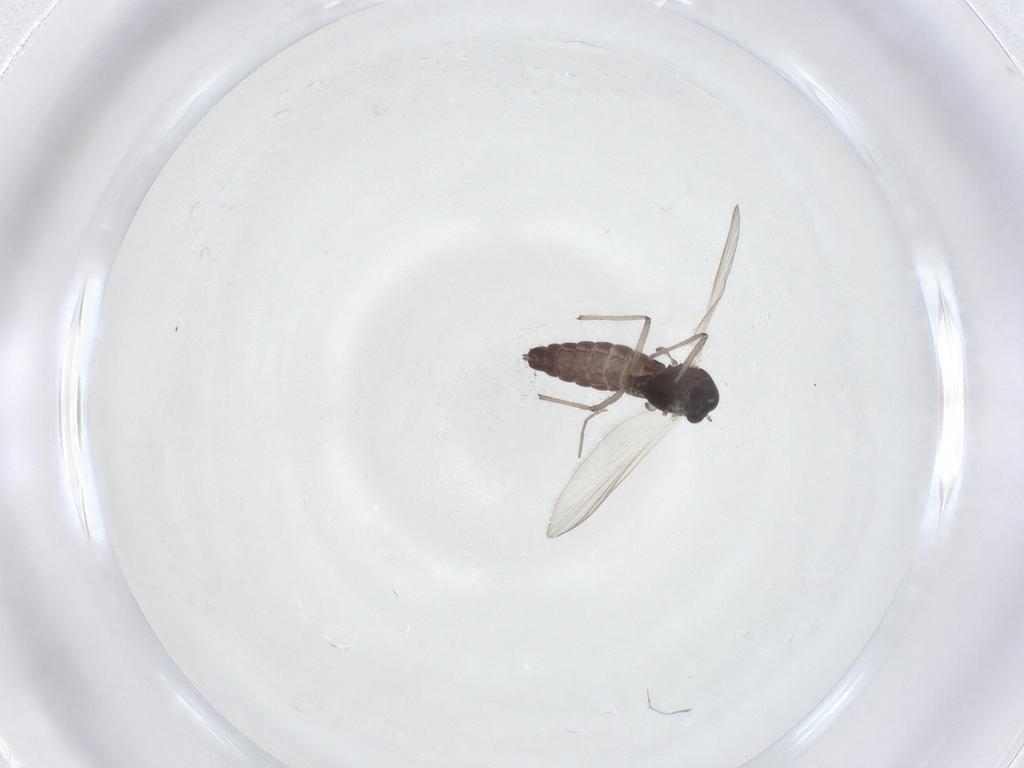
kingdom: Animalia
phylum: Arthropoda
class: Insecta
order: Diptera
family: Chironomidae
